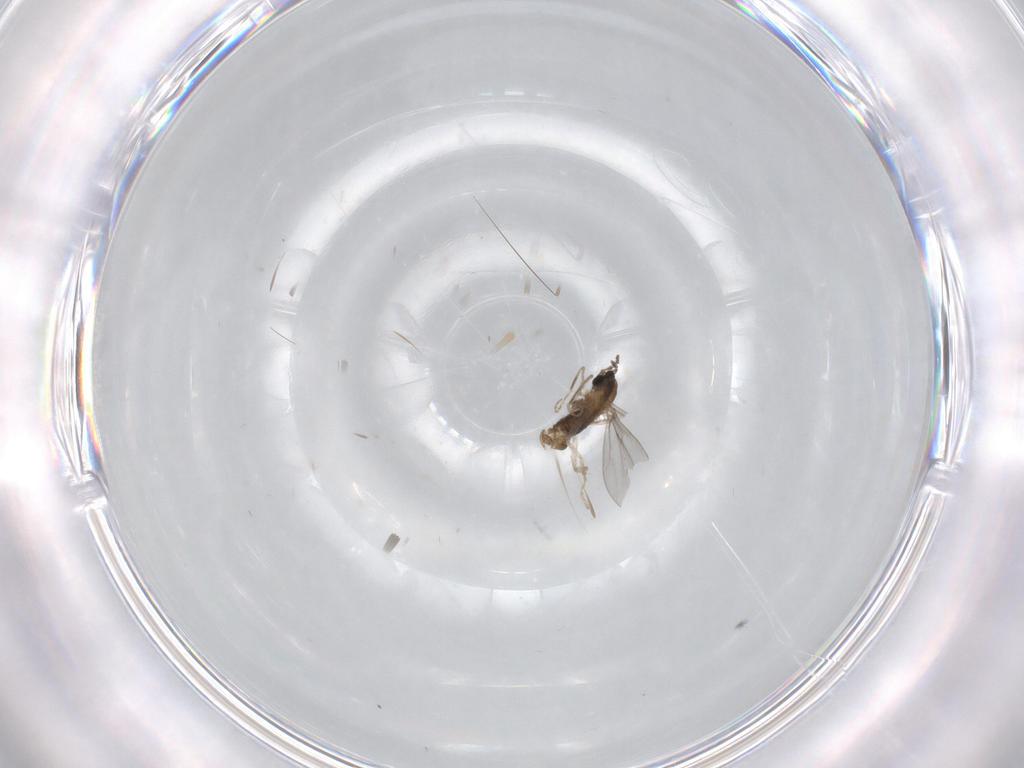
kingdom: Animalia
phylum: Arthropoda
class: Insecta
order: Diptera
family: Cecidomyiidae
